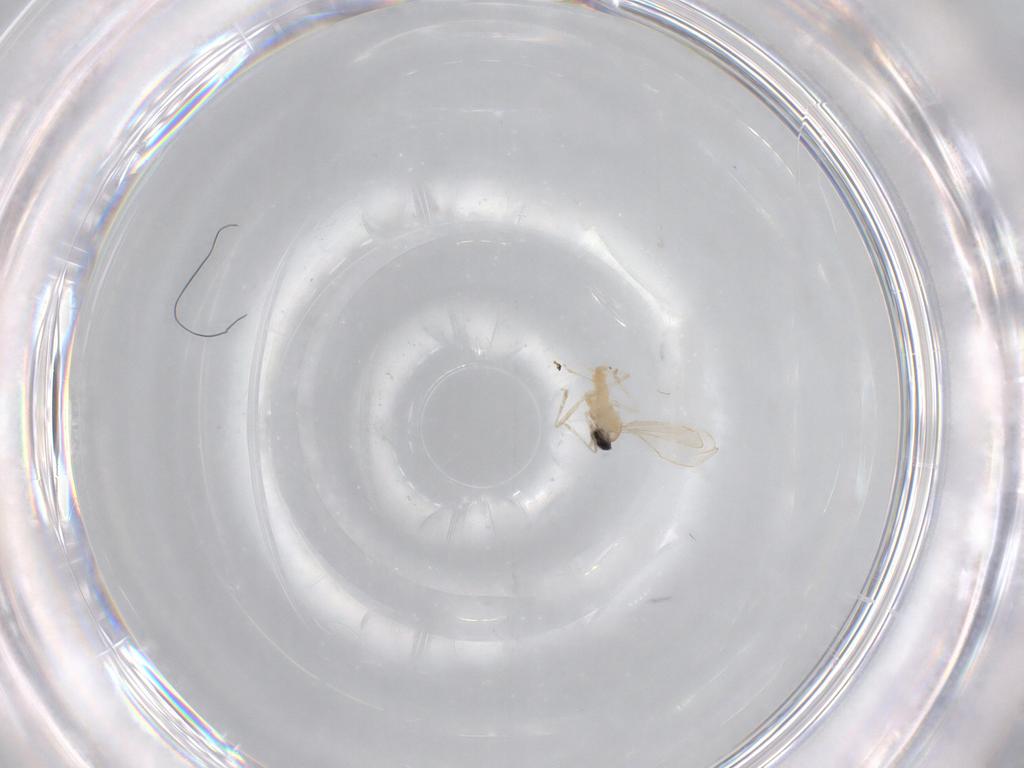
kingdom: Animalia
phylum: Arthropoda
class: Insecta
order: Diptera
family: Cecidomyiidae
